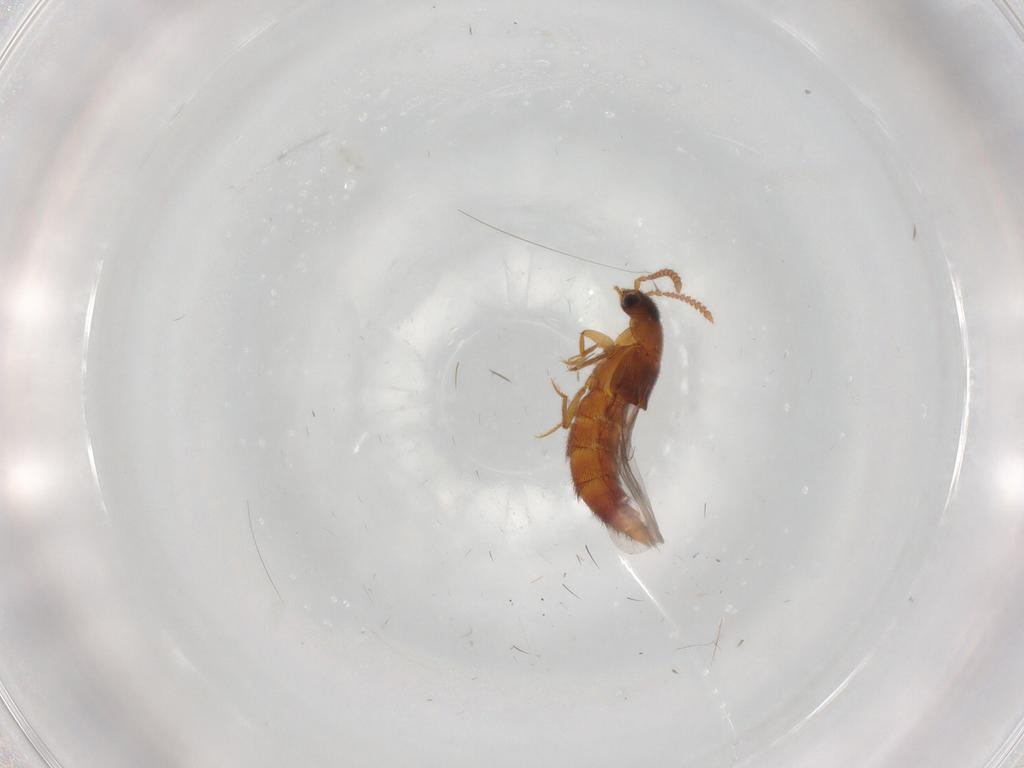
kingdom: Animalia
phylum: Arthropoda
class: Insecta
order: Coleoptera
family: Staphylinidae
